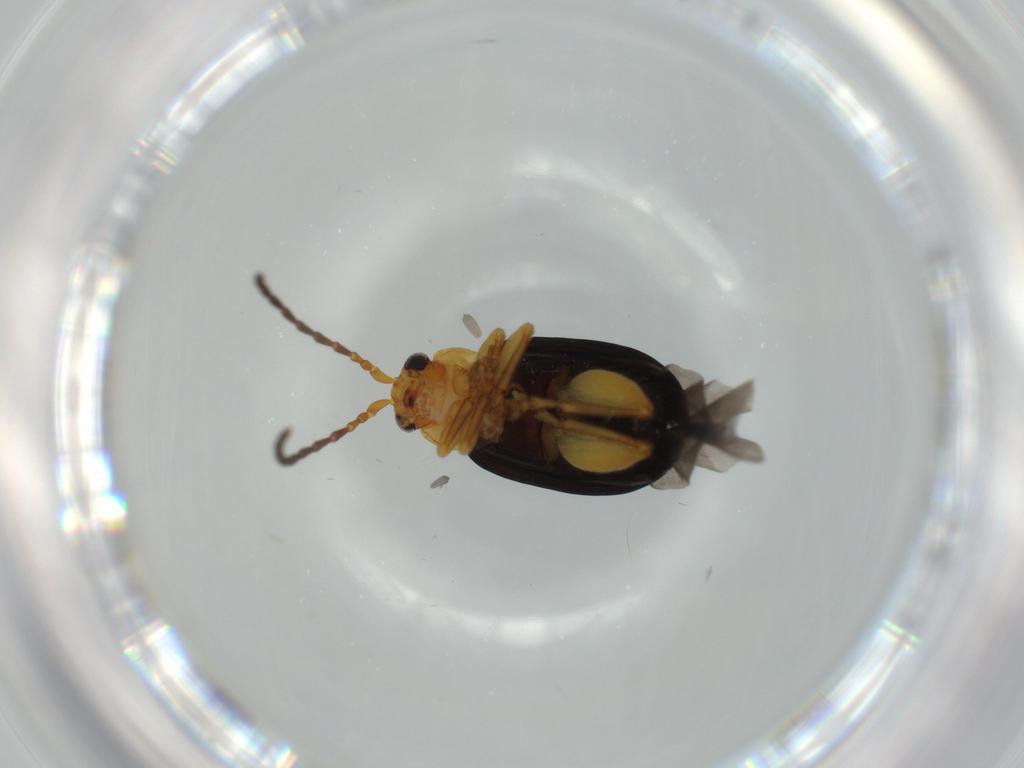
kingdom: Animalia
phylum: Arthropoda
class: Insecta
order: Coleoptera
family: Chrysomelidae
